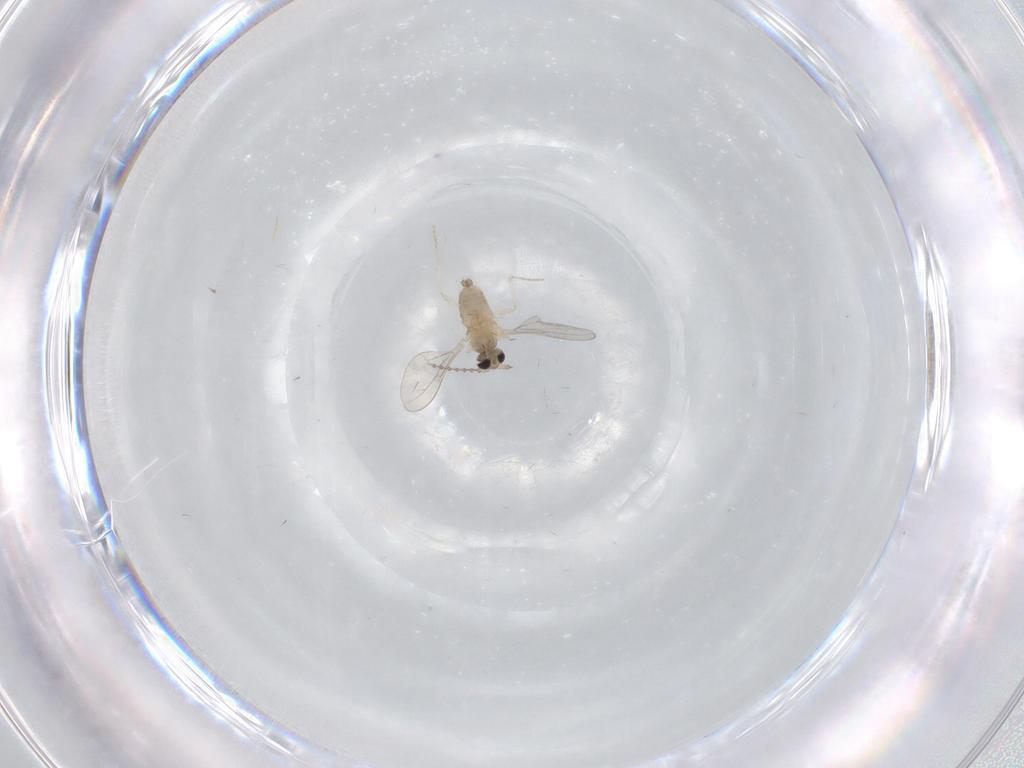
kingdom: Animalia
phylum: Arthropoda
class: Insecta
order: Diptera
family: Cecidomyiidae
